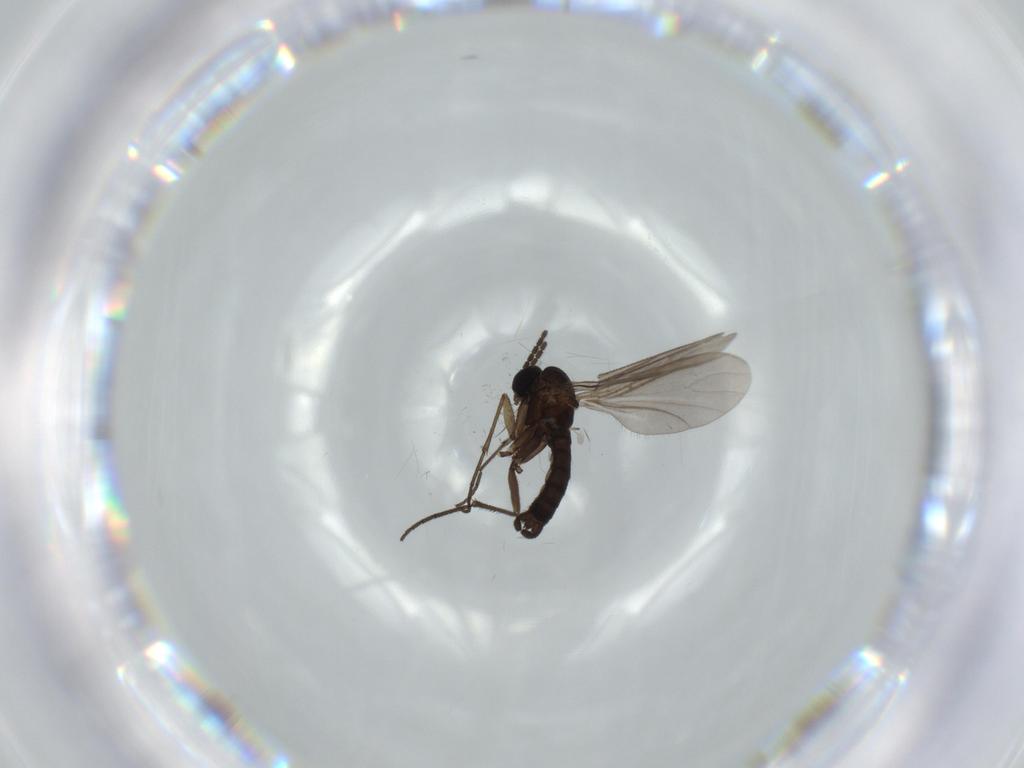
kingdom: Animalia
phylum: Arthropoda
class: Insecta
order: Diptera
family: Sciaridae
